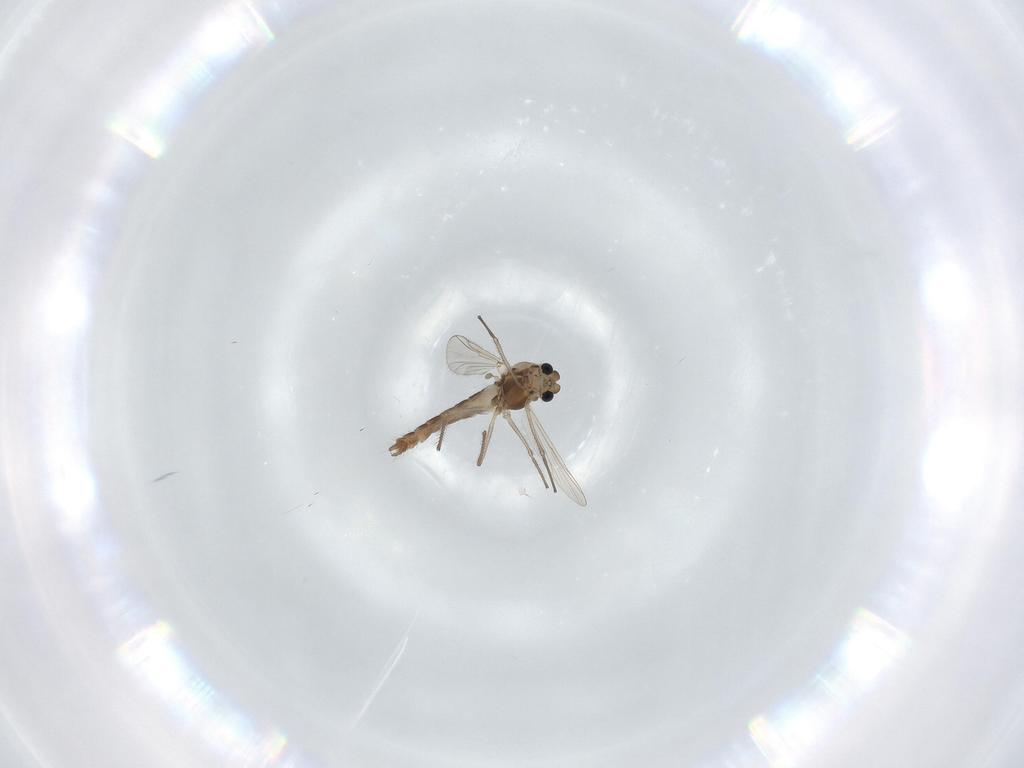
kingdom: Animalia
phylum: Arthropoda
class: Insecta
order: Diptera
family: Chironomidae
